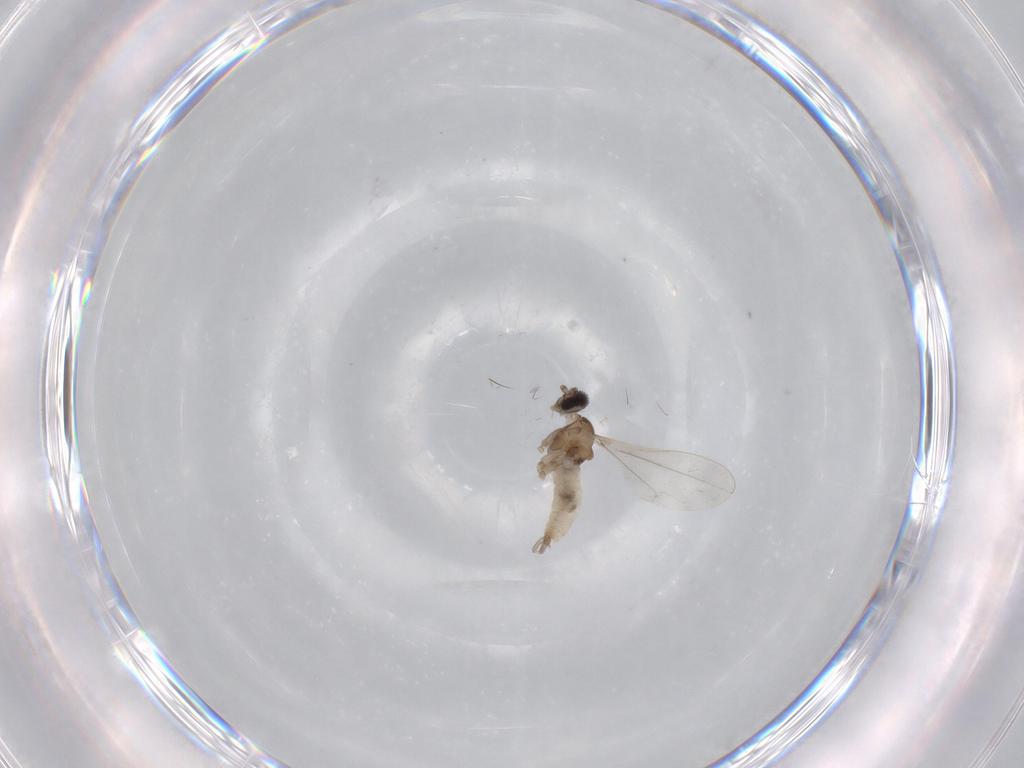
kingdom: Animalia
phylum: Arthropoda
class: Insecta
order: Diptera
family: Cecidomyiidae
